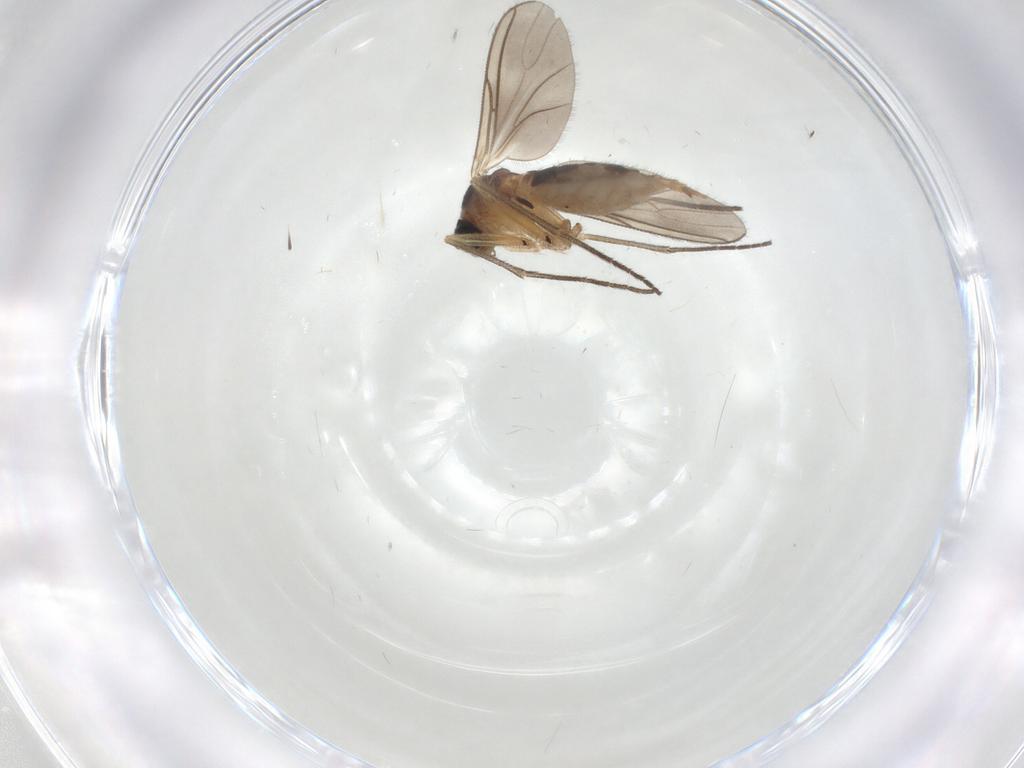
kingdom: Animalia
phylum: Arthropoda
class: Insecta
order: Diptera
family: Sciaridae
